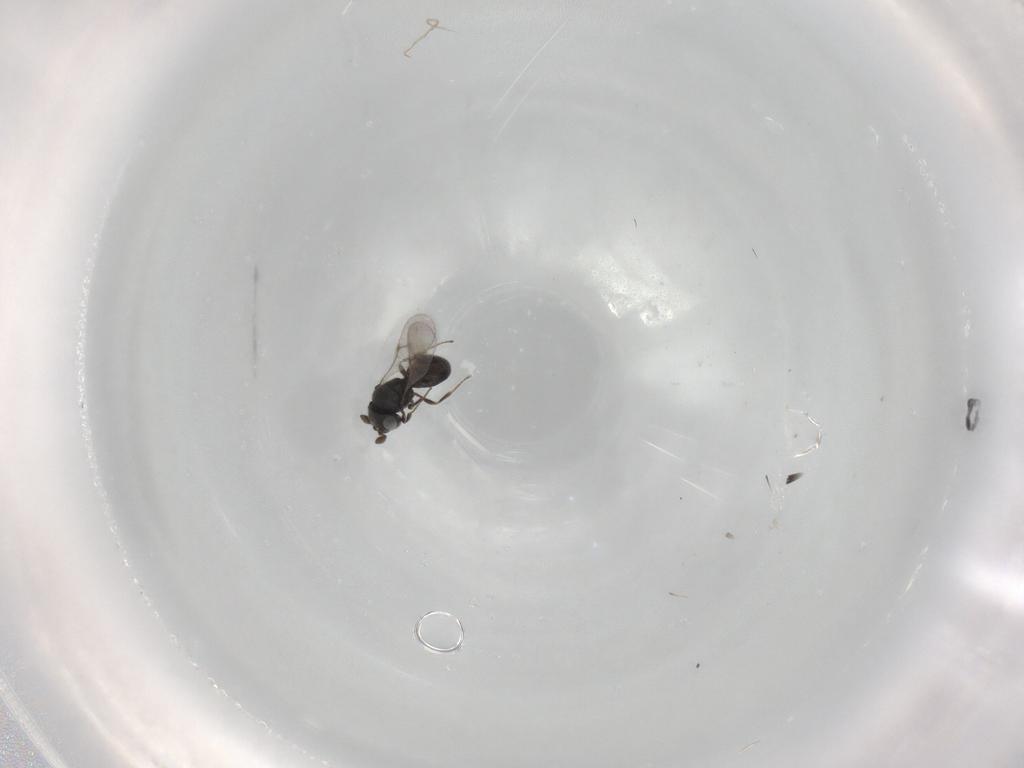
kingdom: Animalia
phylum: Arthropoda
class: Insecta
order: Hymenoptera
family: Scelionidae
